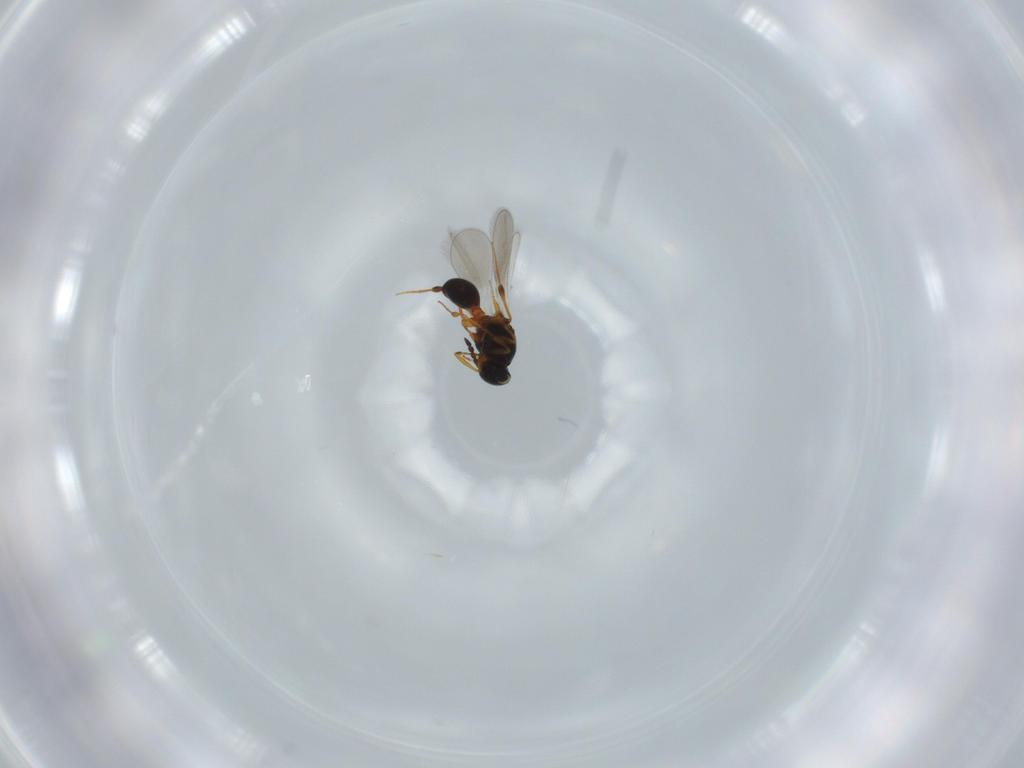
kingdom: Animalia
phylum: Arthropoda
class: Insecta
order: Hymenoptera
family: Platygastridae
